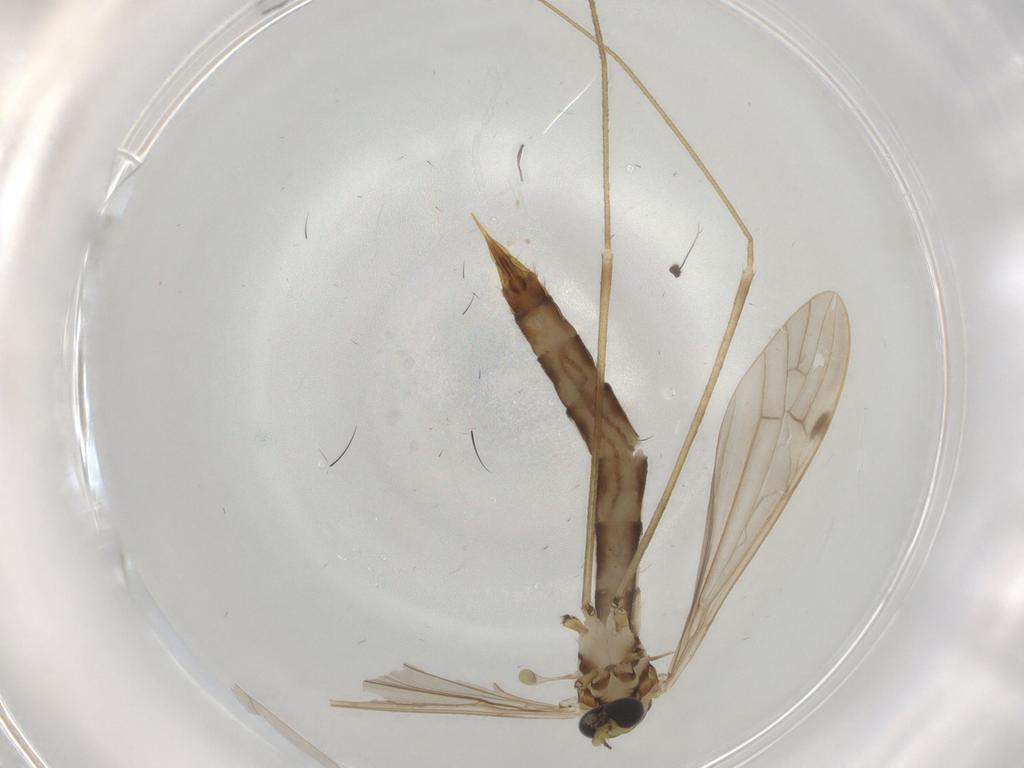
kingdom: Animalia
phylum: Arthropoda
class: Insecta
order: Diptera
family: Limoniidae
